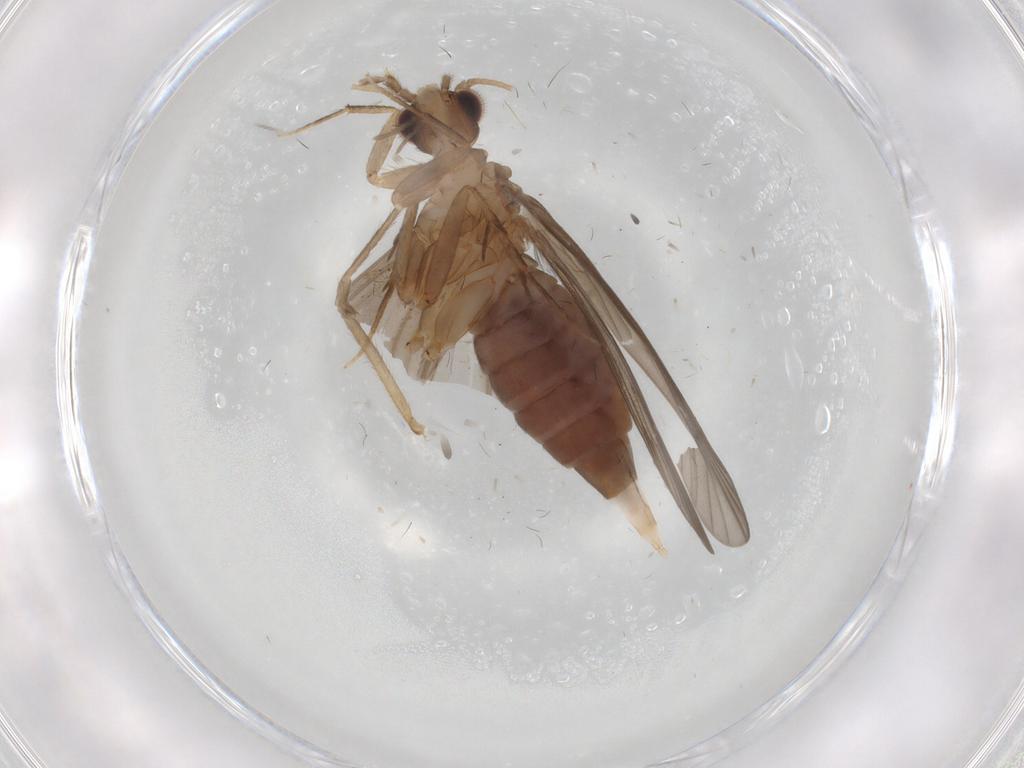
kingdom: Animalia
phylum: Arthropoda
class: Insecta
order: Trichoptera
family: Philopotamidae
